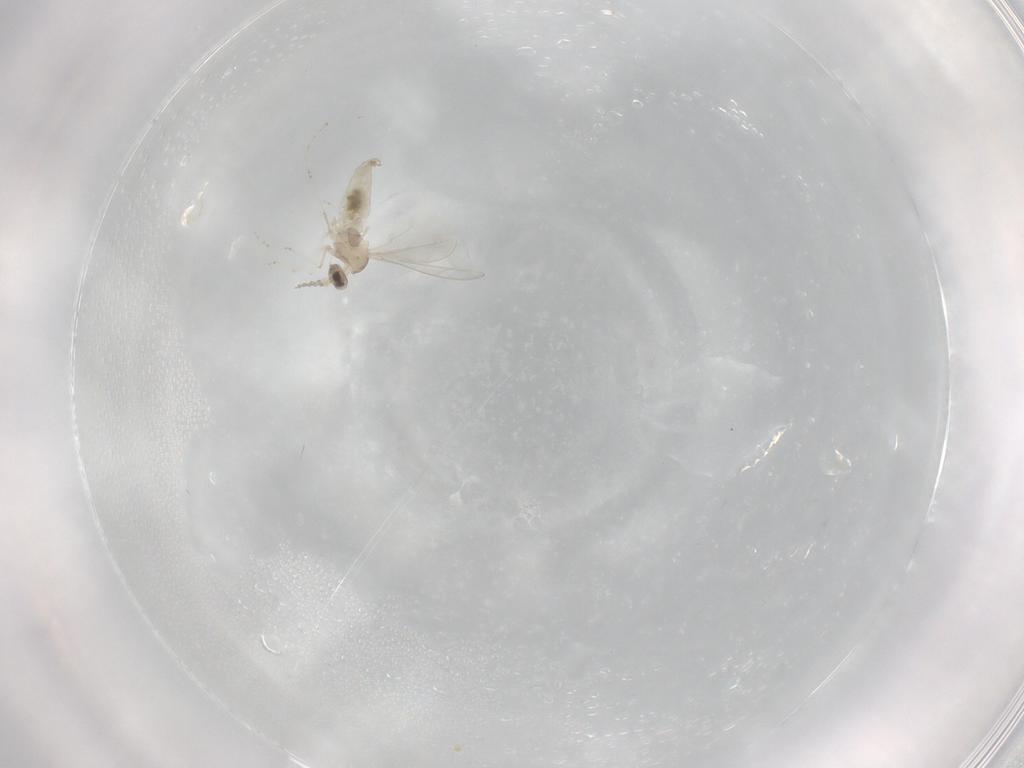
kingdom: Animalia
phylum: Arthropoda
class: Insecta
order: Diptera
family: Ceratopogonidae
